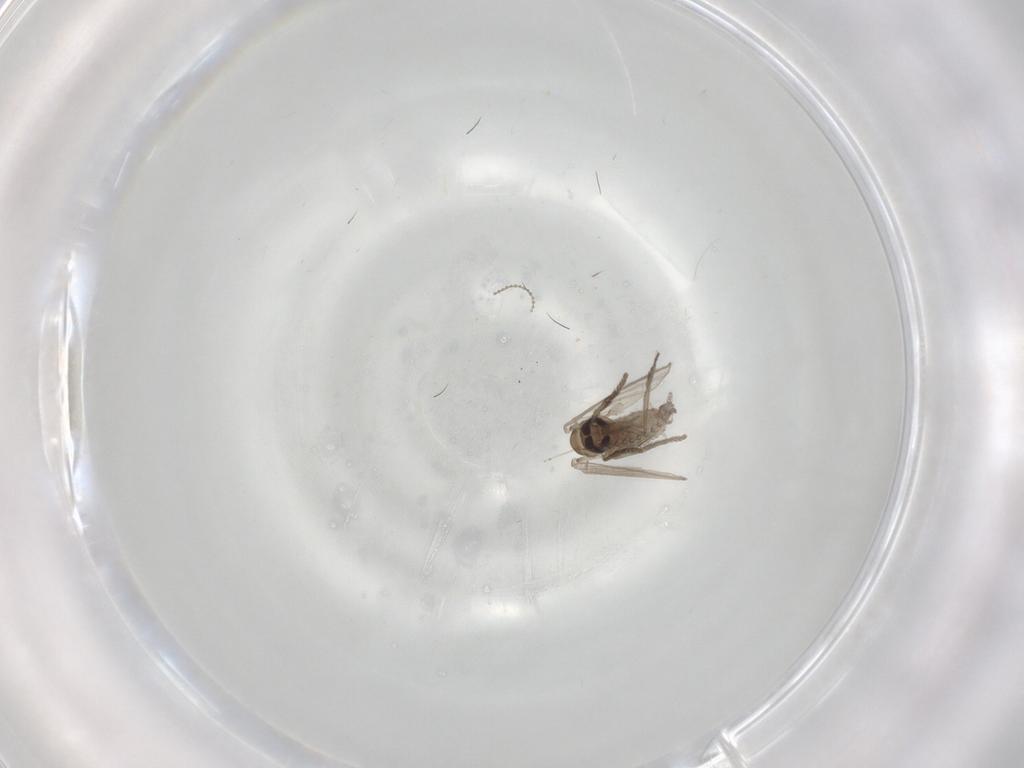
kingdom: Animalia
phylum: Arthropoda
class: Insecta
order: Diptera
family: Psychodidae
